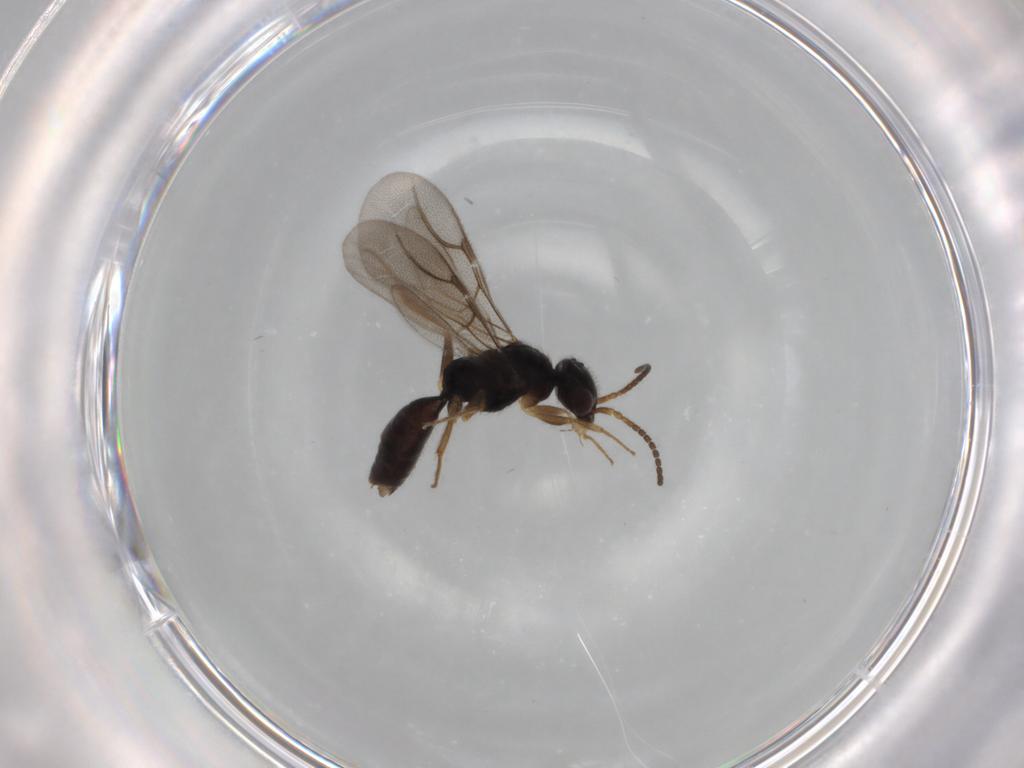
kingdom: Animalia
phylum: Arthropoda
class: Insecta
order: Hymenoptera
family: Bethylidae
